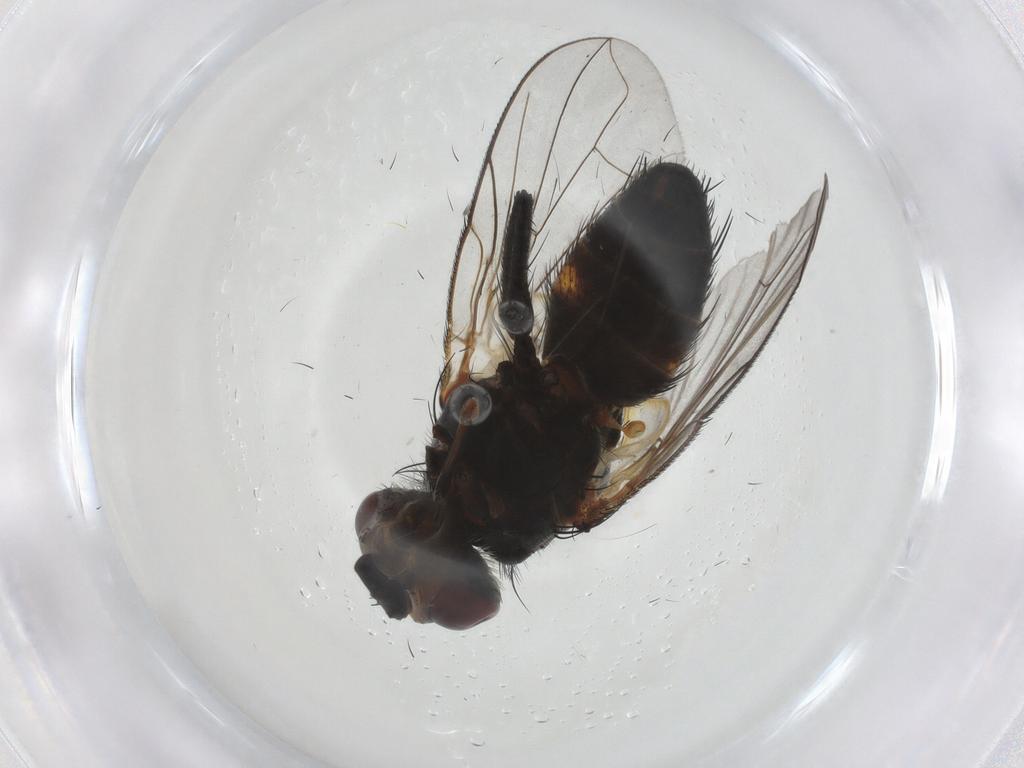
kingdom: Animalia
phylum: Arthropoda
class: Insecta
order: Diptera
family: Tachinidae
